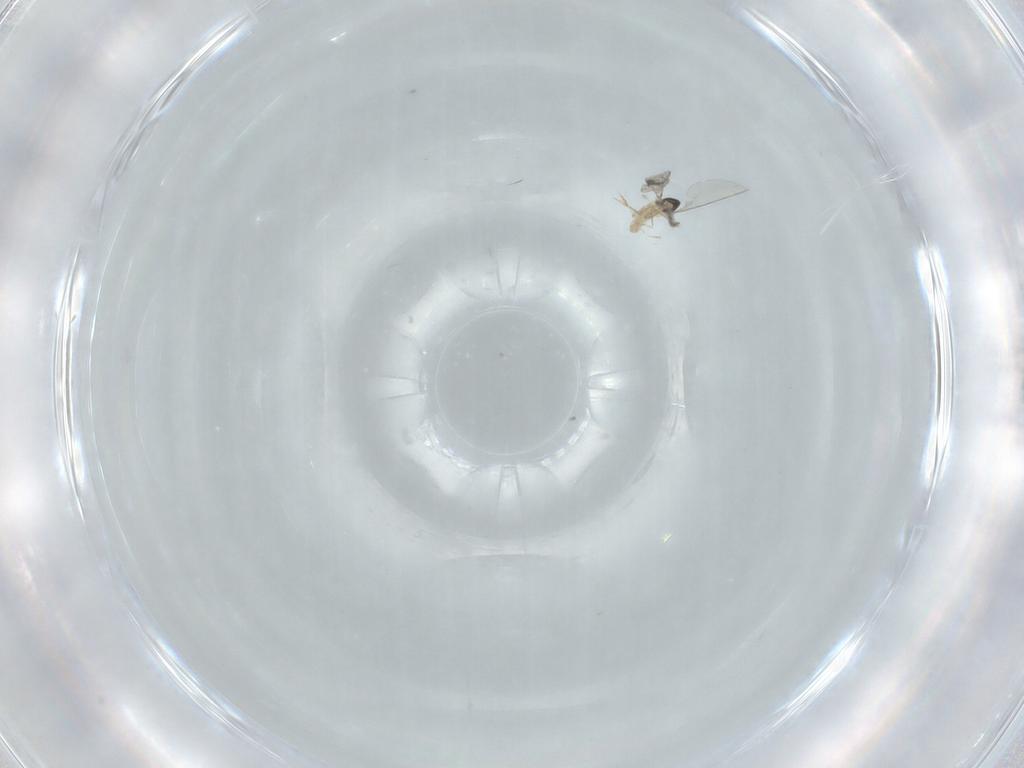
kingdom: Animalia
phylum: Arthropoda
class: Insecta
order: Diptera
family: Cecidomyiidae
